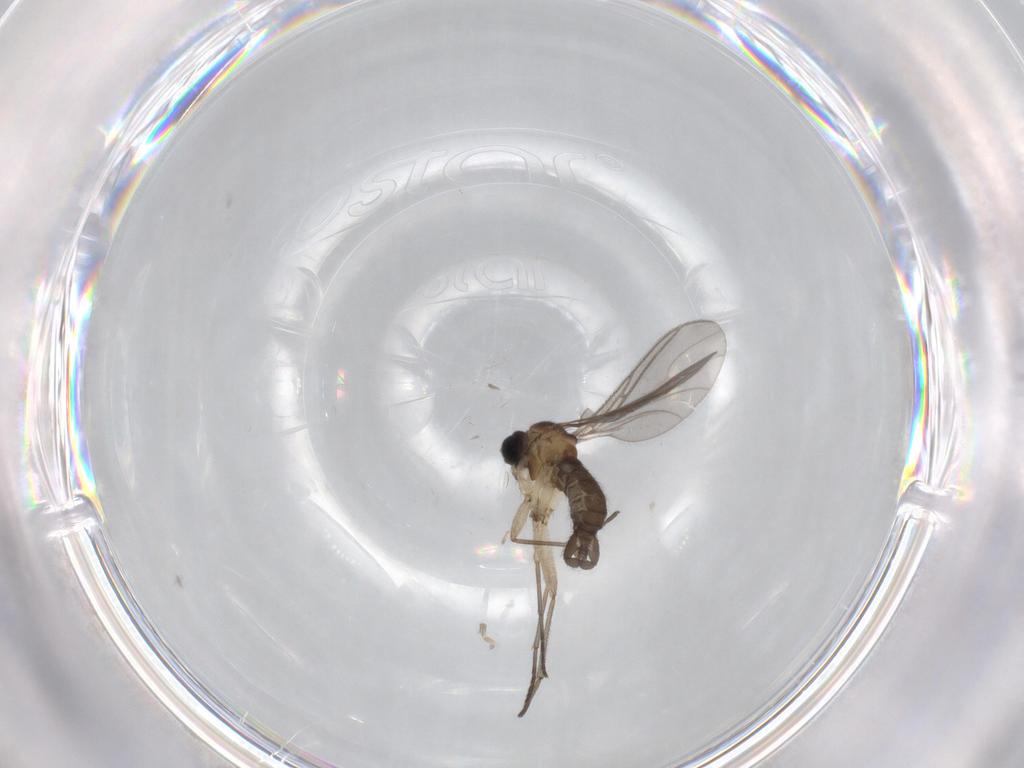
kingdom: Animalia
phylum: Arthropoda
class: Insecta
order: Diptera
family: Sciaridae
